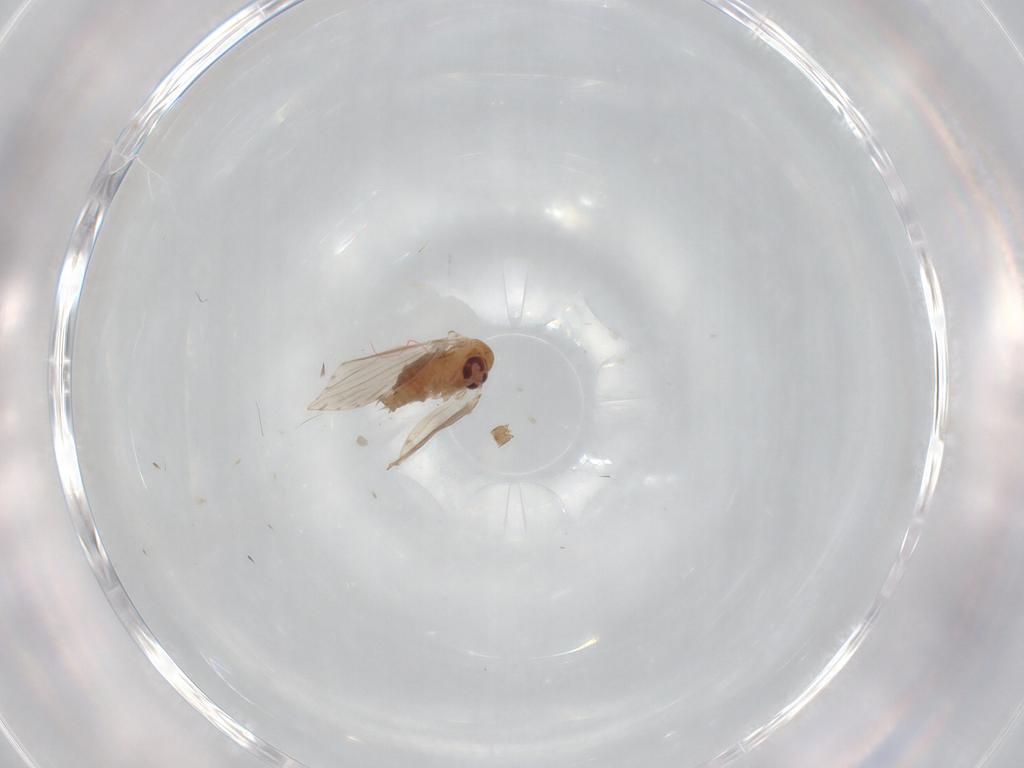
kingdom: Animalia
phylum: Arthropoda
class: Insecta
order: Diptera
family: Psychodidae
